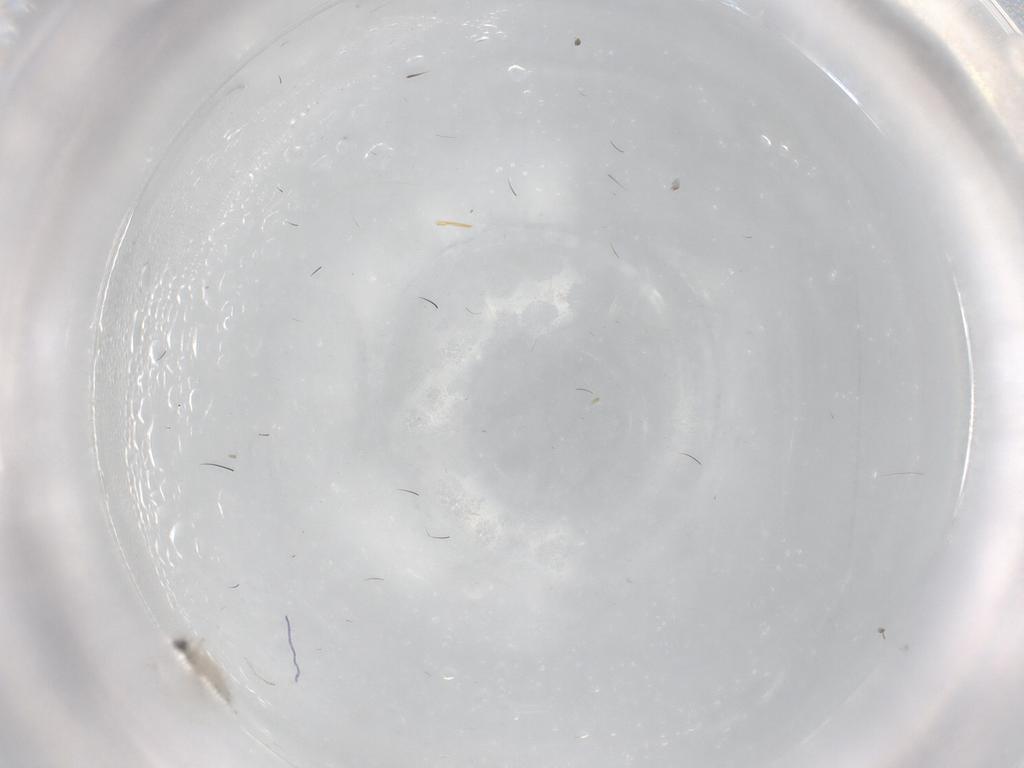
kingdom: Animalia
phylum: Arthropoda
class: Insecta
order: Diptera
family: Cecidomyiidae
